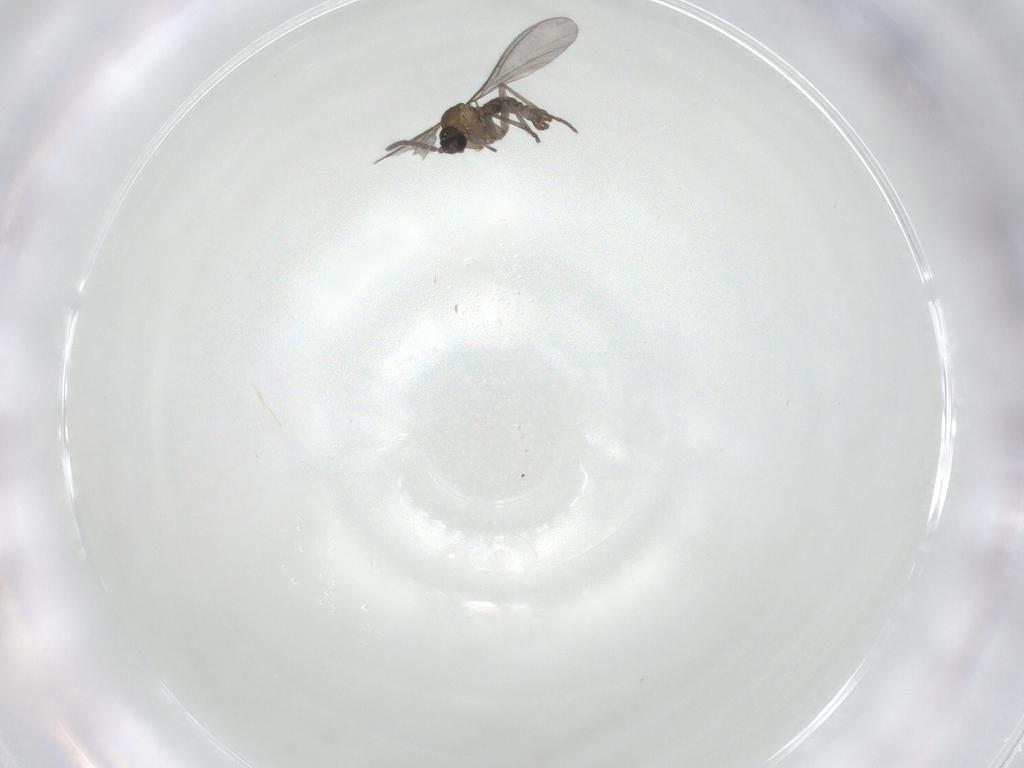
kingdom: Animalia
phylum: Arthropoda
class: Insecta
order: Diptera
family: Sciaridae
